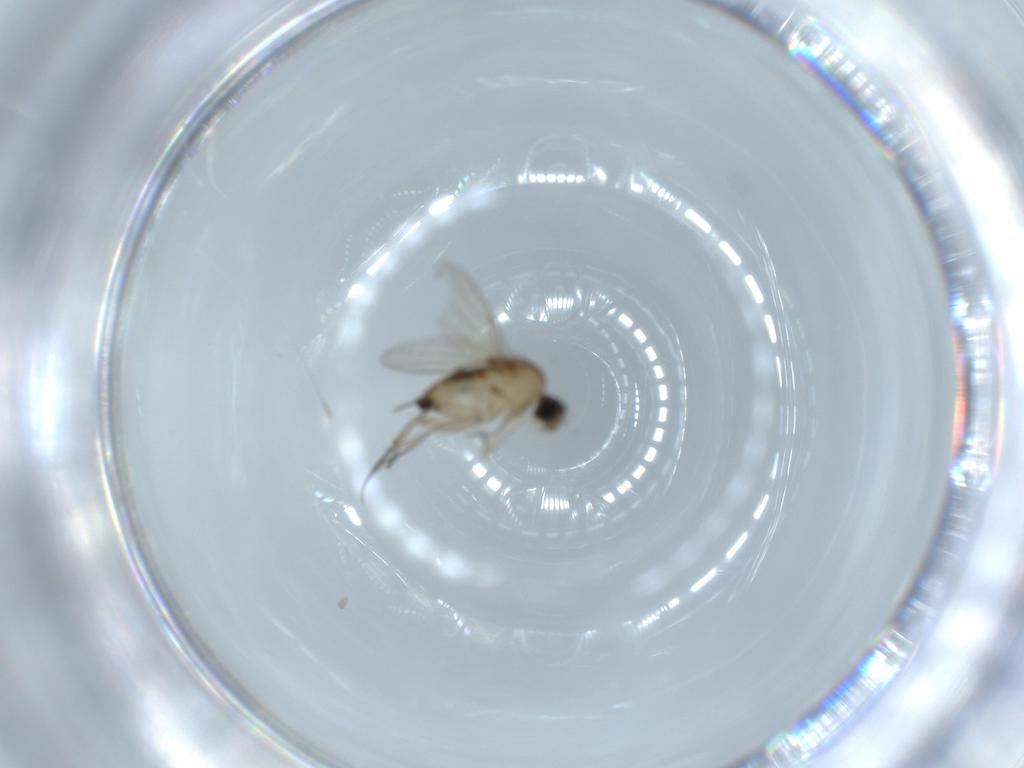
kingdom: Animalia
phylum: Arthropoda
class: Insecta
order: Diptera
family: Phoridae
